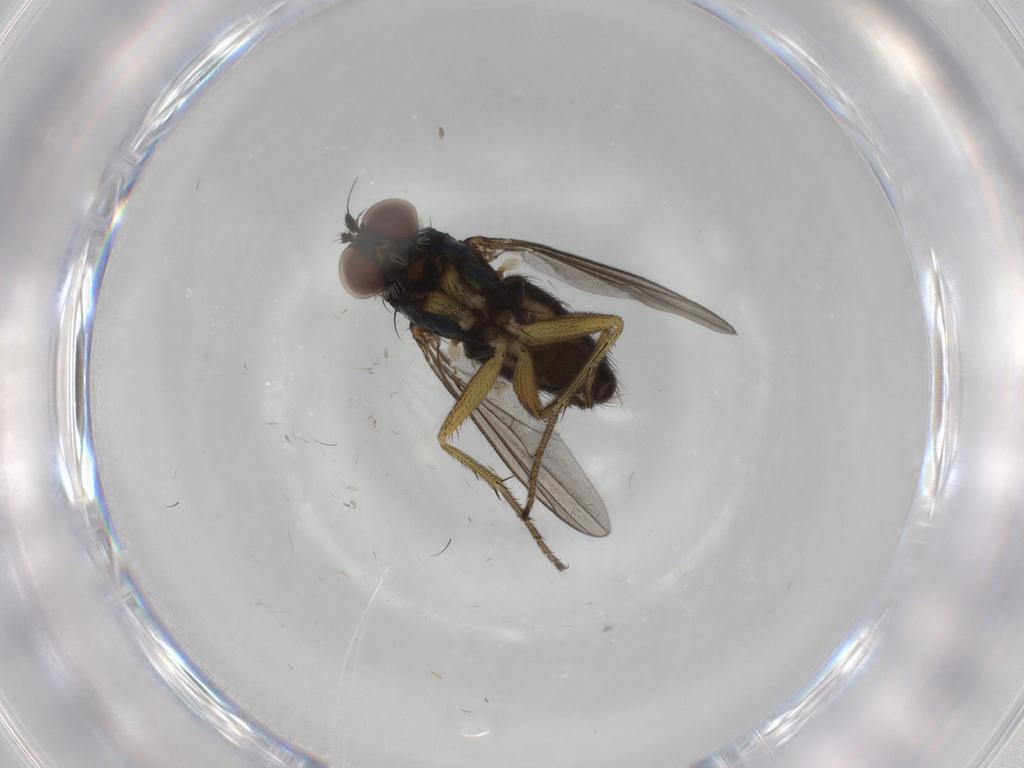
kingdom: Animalia
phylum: Arthropoda
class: Insecta
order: Diptera
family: Dolichopodidae
